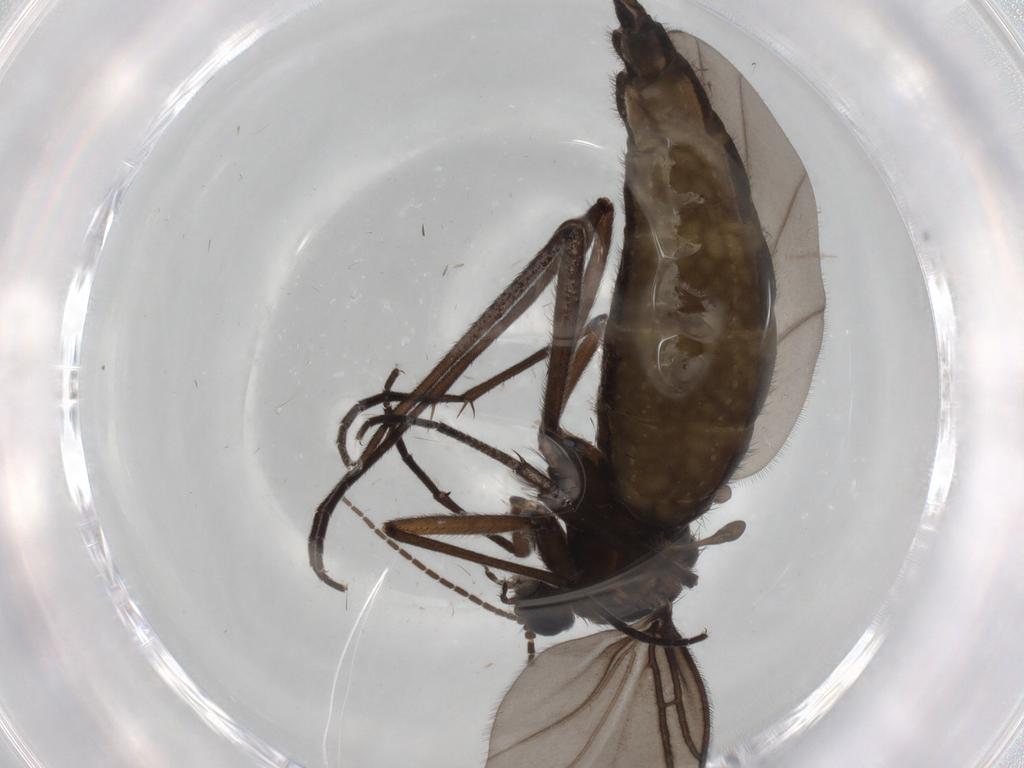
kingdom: Animalia
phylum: Arthropoda
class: Insecta
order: Diptera
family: Sciaridae
